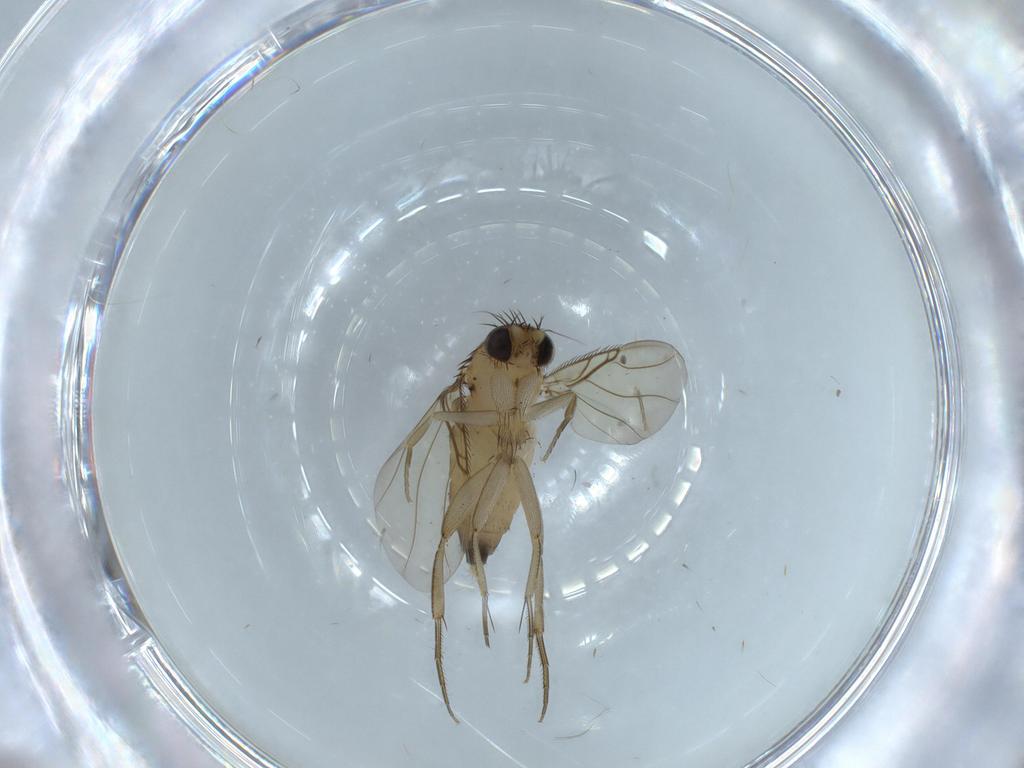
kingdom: Animalia
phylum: Arthropoda
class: Insecta
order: Diptera
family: Phoridae
